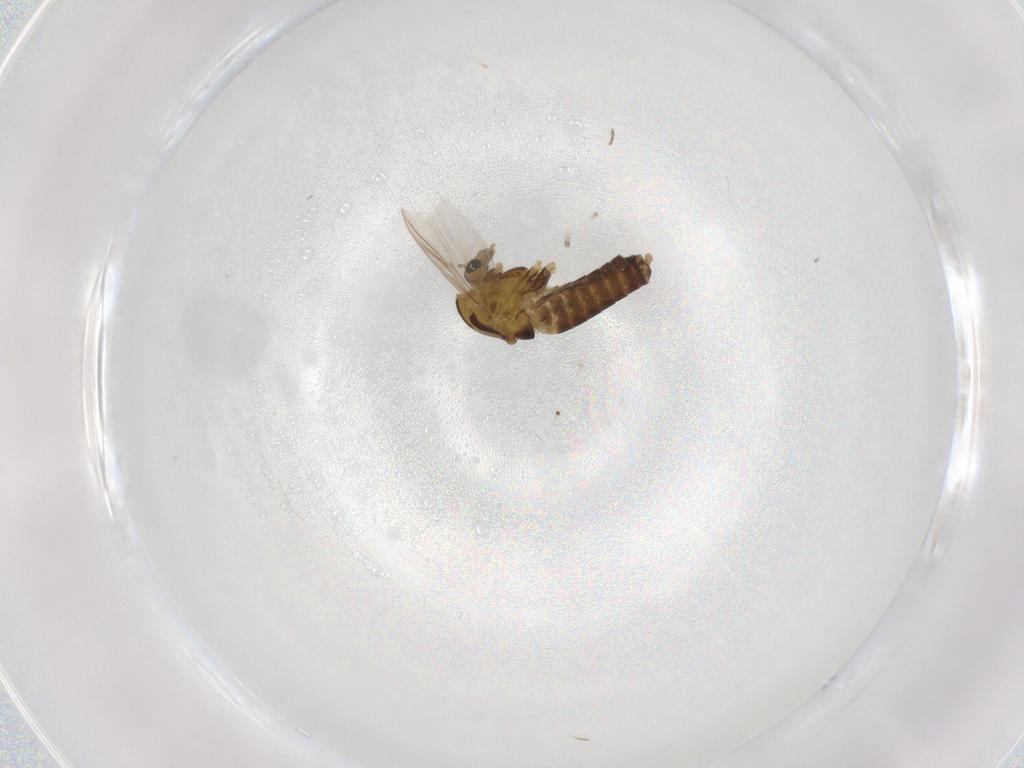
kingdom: Animalia
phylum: Arthropoda
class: Insecta
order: Diptera
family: Chironomidae
